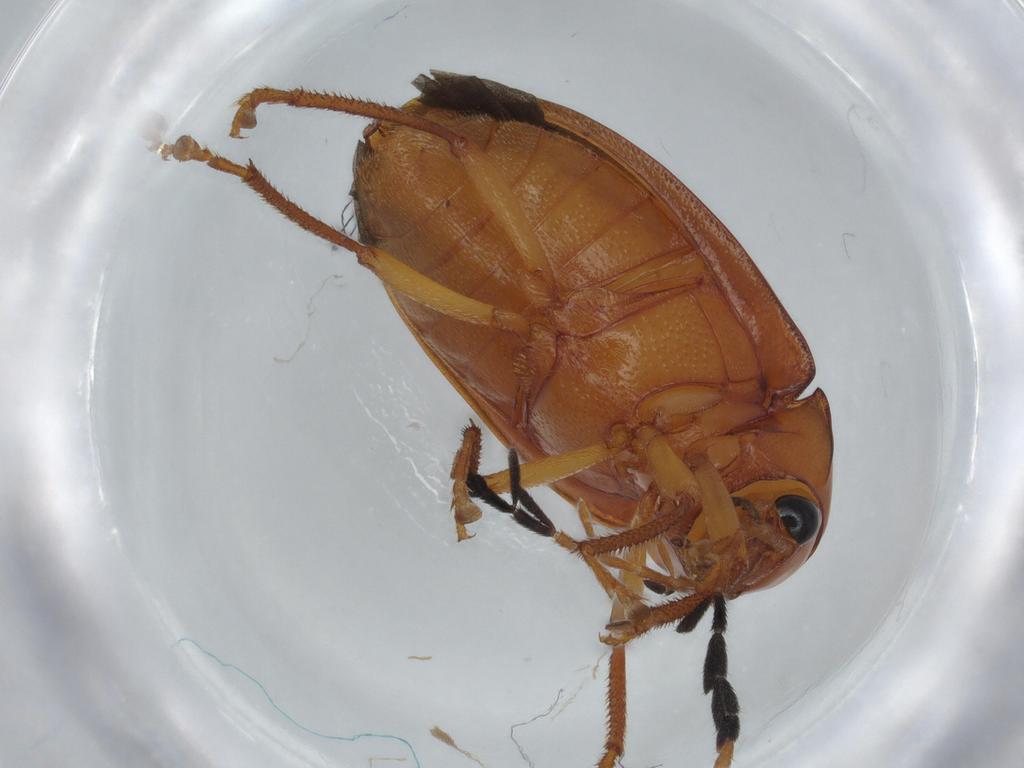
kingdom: Animalia
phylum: Arthropoda
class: Insecta
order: Coleoptera
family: Ptilodactylidae
